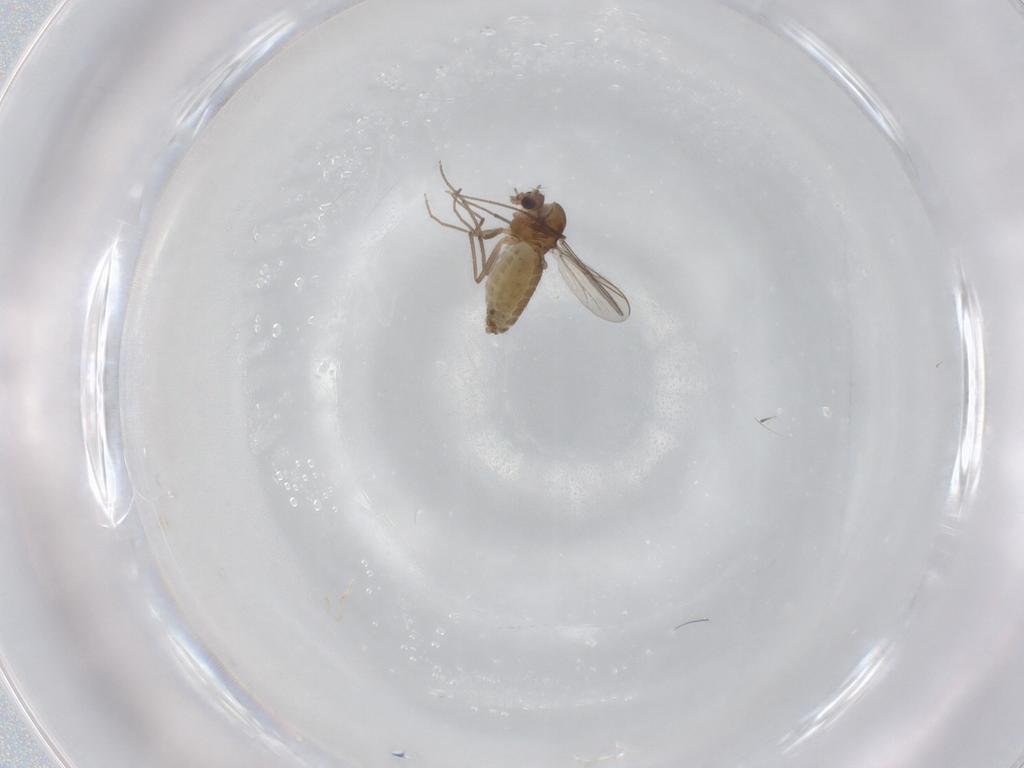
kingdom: Animalia
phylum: Arthropoda
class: Insecta
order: Diptera
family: Chironomidae
